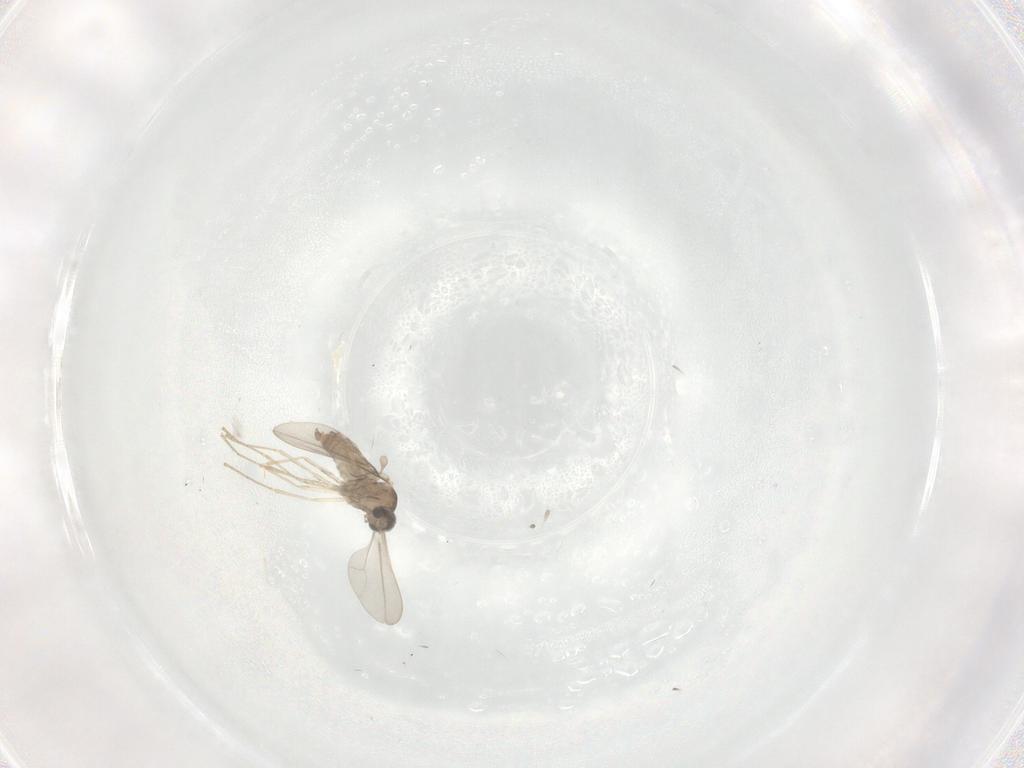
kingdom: Animalia
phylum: Arthropoda
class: Insecta
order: Diptera
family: Cecidomyiidae
